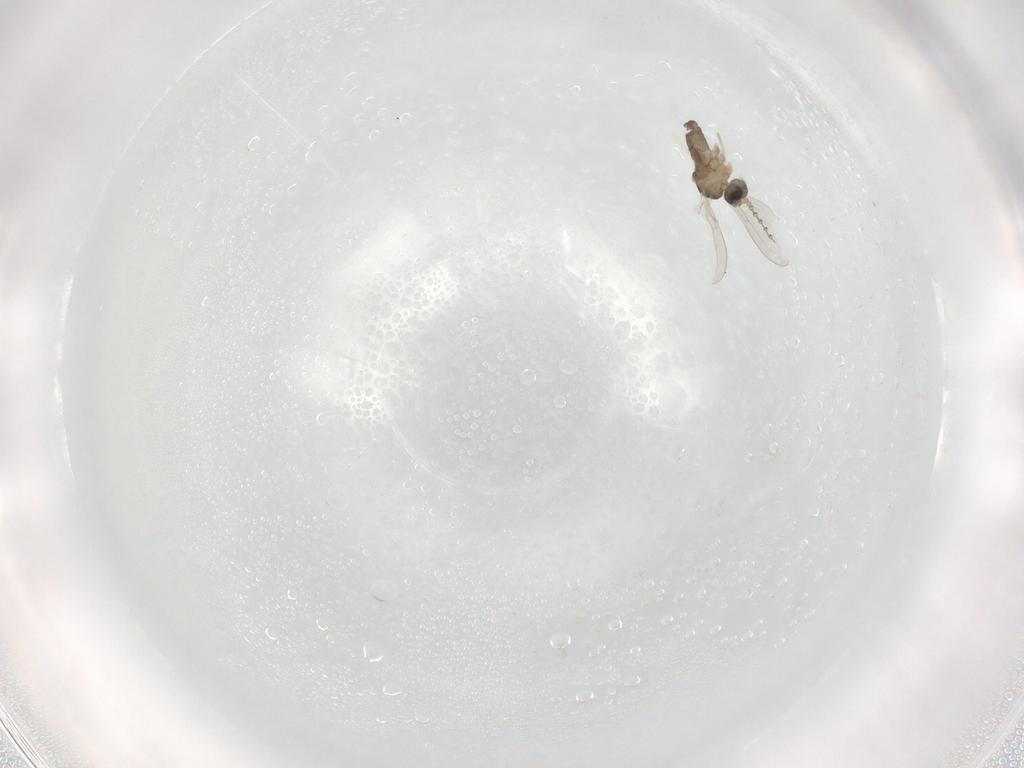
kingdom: Animalia
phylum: Arthropoda
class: Insecta
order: Diptera
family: Cecidomyiidae
